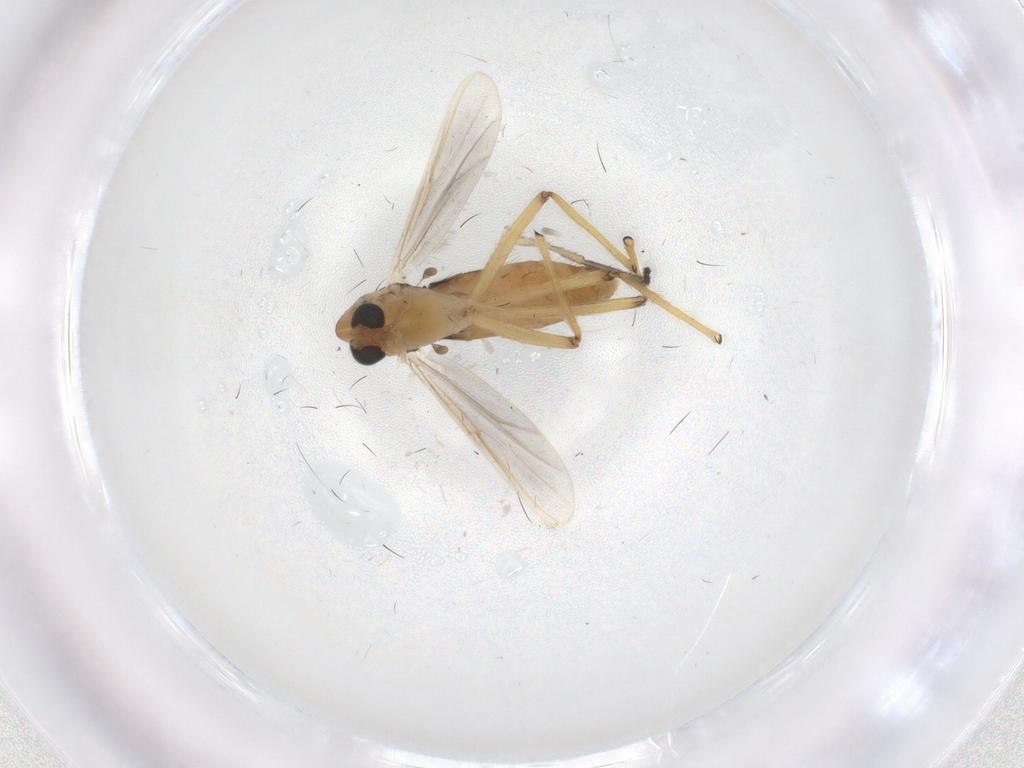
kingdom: Animalia
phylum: Arthropoda
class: Insecta
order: Diptera
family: Chironomidae
